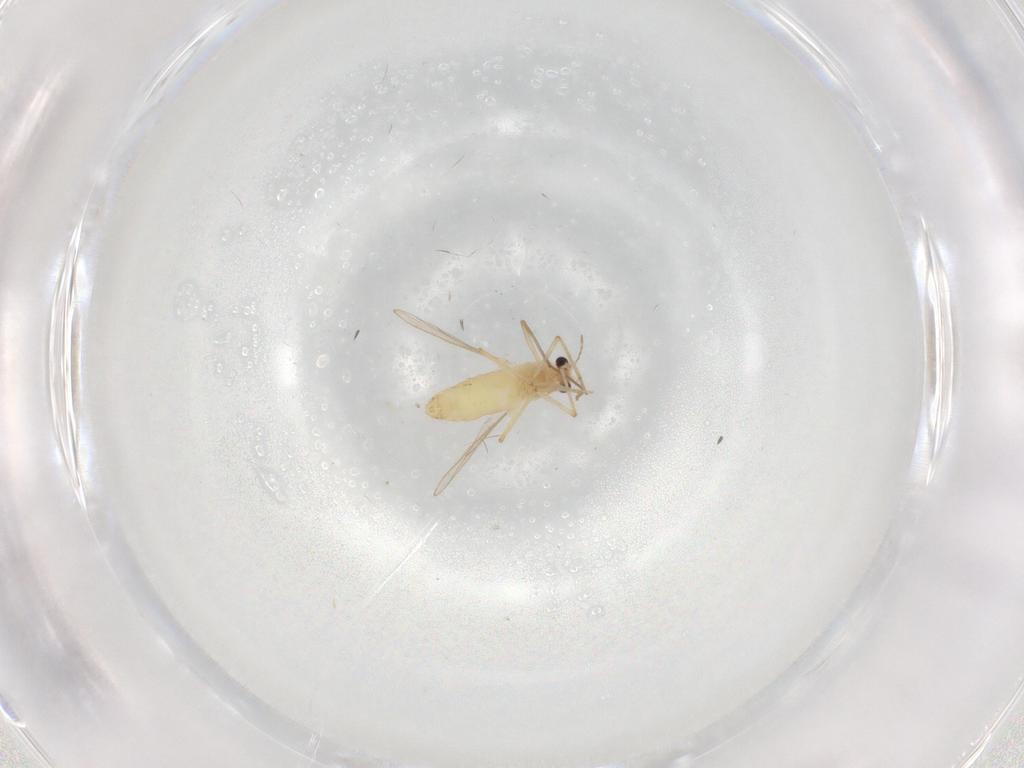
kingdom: Animalia
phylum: Arthropoda
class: Insecta
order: Diptera
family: Chironomidae
